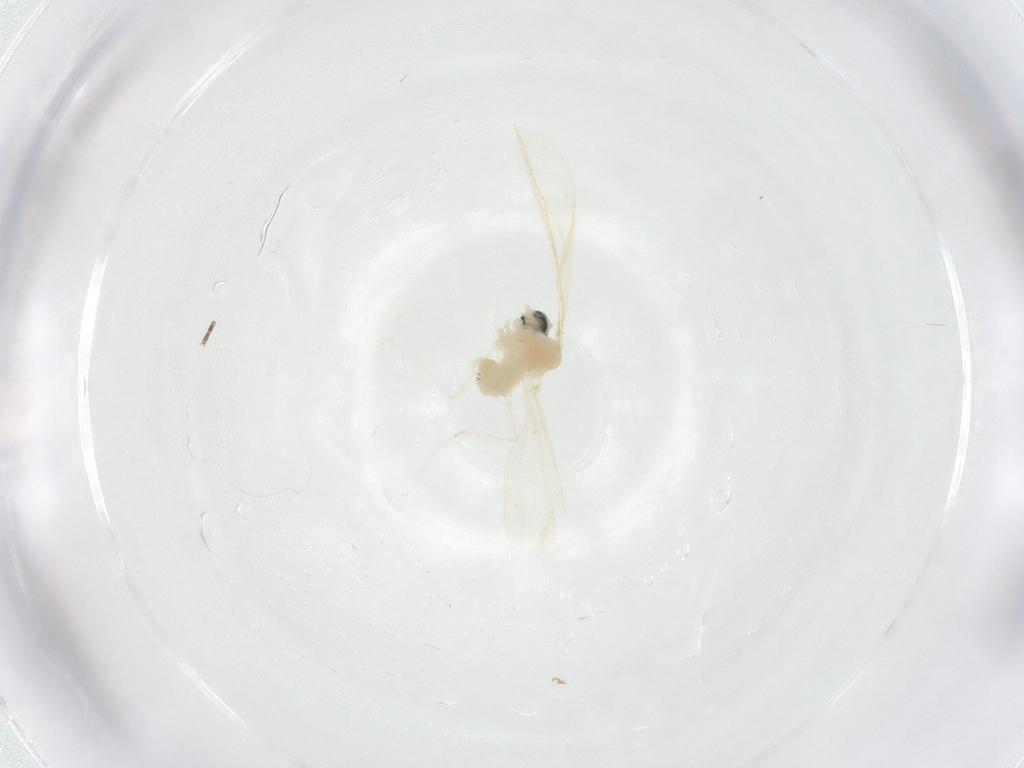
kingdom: Animalia
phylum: Arthropoda
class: Insecta
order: Diptera
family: Sciaridae
